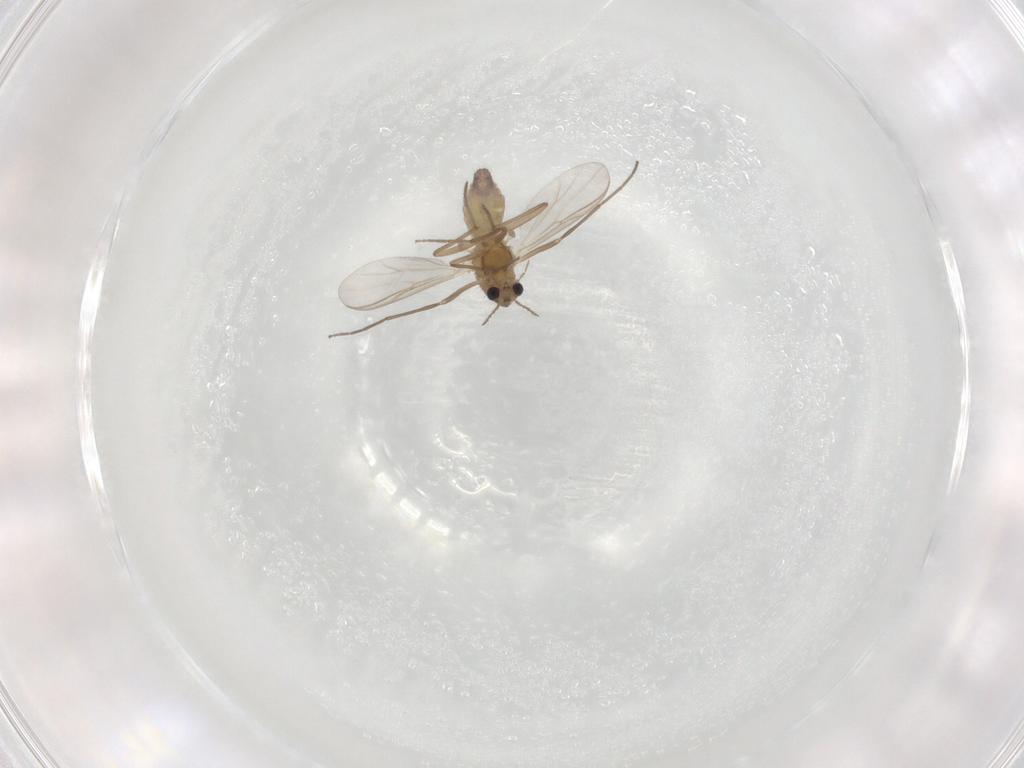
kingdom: Animalia
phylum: Arthropoda
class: Insecta
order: Diptera
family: Chironomidae
